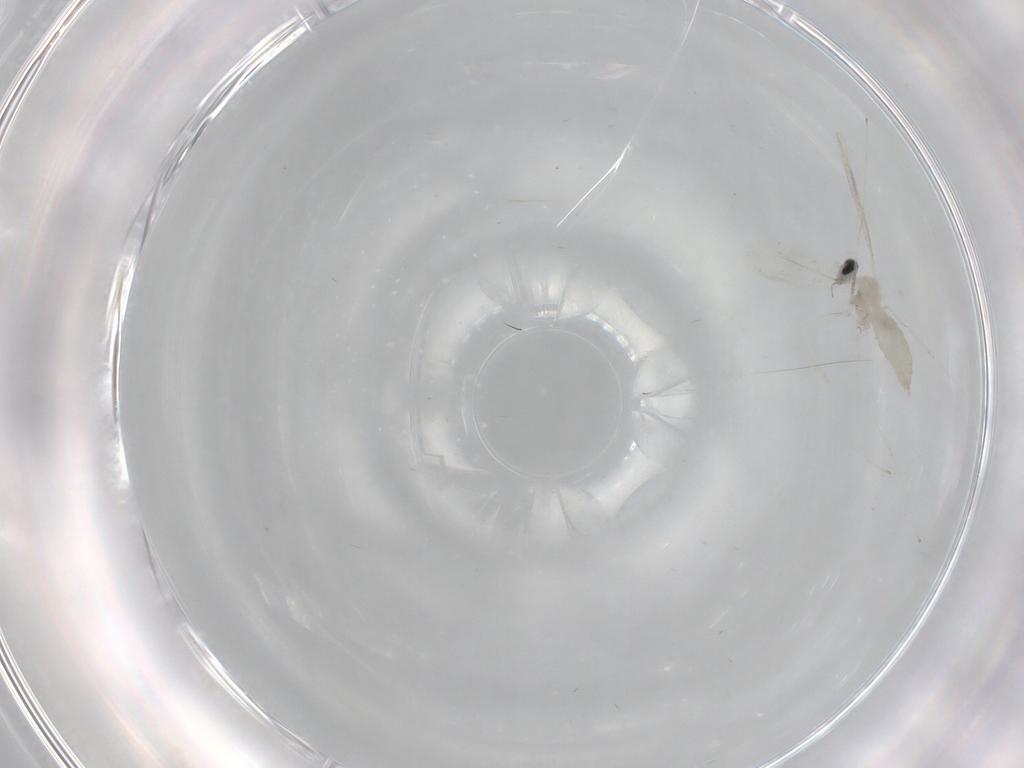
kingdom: Animalia
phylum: Arthropoda
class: Insecta
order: Diptera
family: Cecidomyiidae
